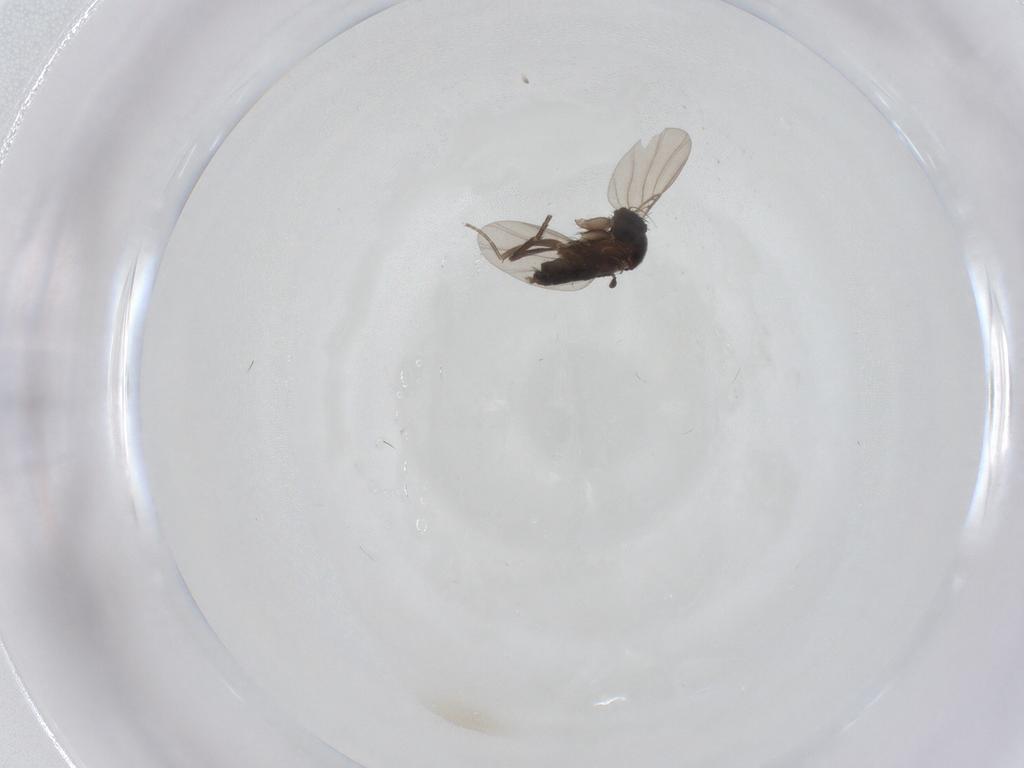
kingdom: Animalia
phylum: Arthropoda
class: Insecta
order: Diptera
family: Phoridae
